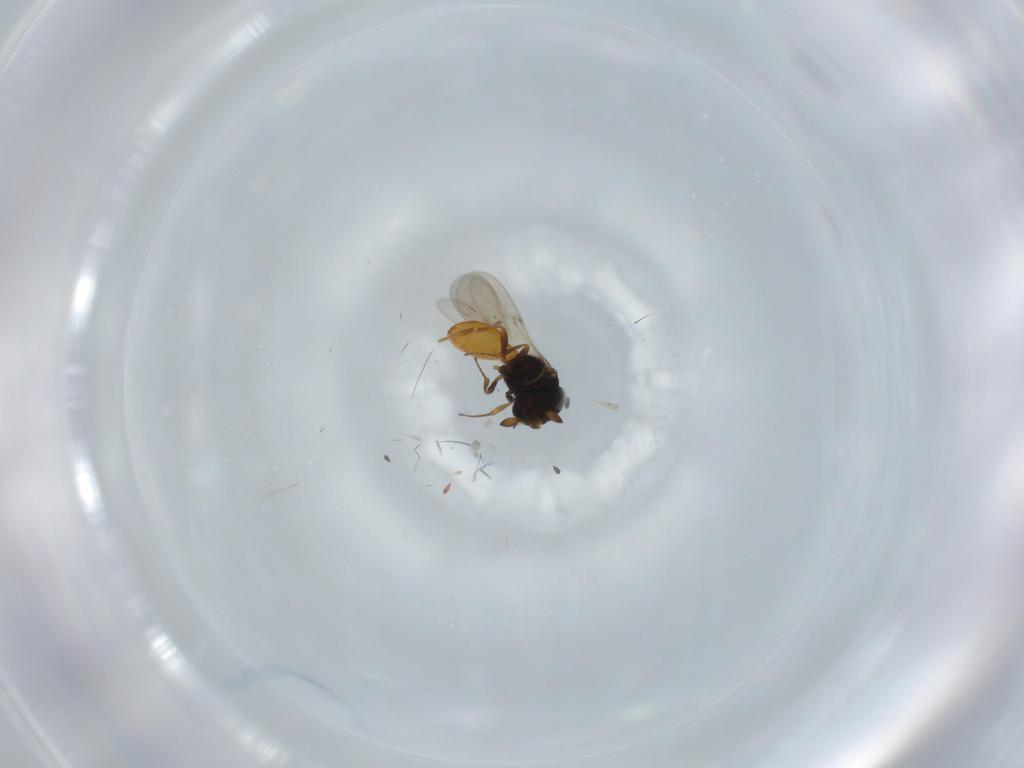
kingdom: Animalia
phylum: Arthropoda
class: Insecta
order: Hymenoptera
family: Scelionidae
